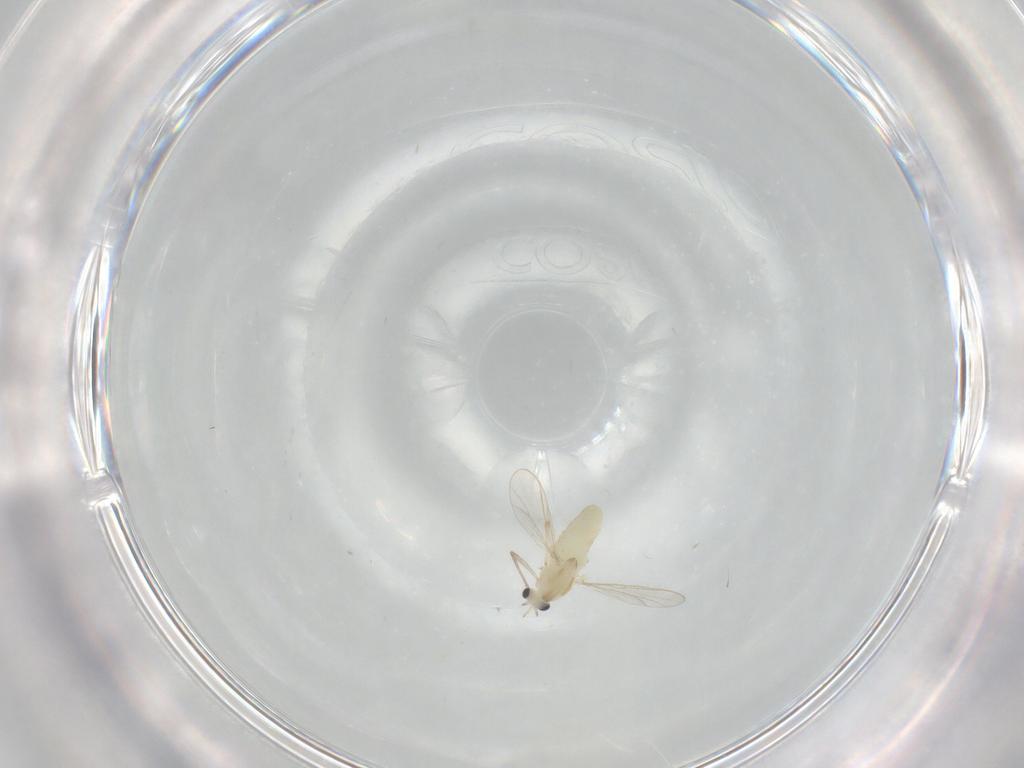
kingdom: Animalia
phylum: Arthropoda
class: Insecta
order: Diptera
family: Chironomidae
